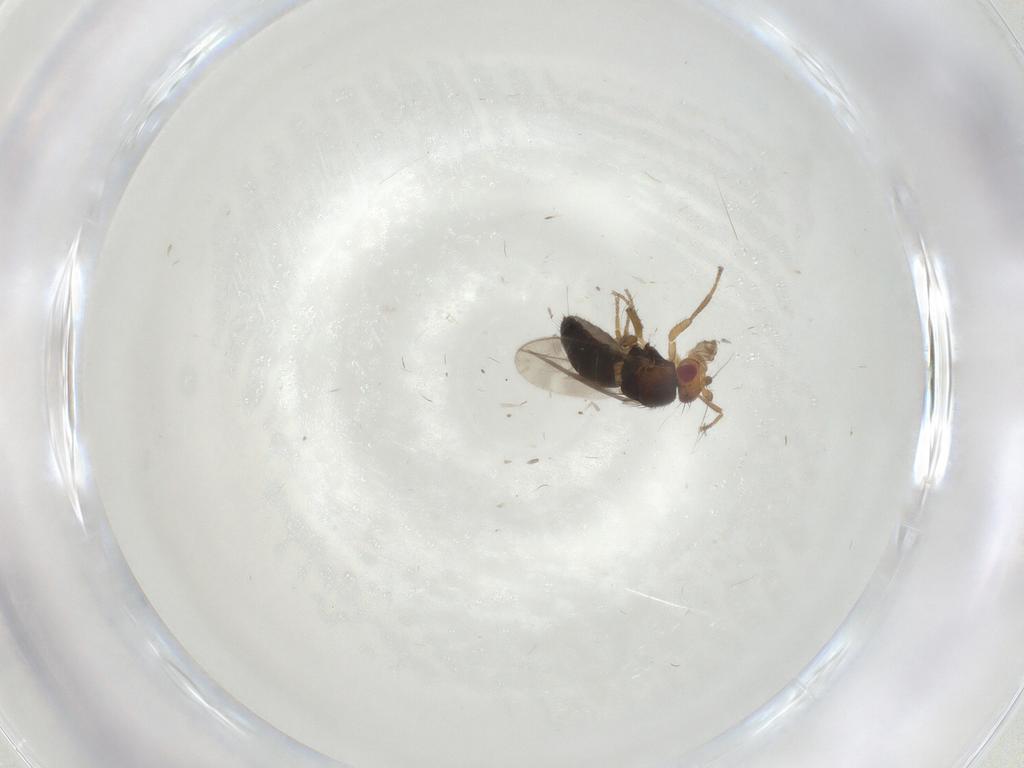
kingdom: Animalia
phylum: Arthropoda
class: Insecta
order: Diptera
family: Sphaeroceridae
